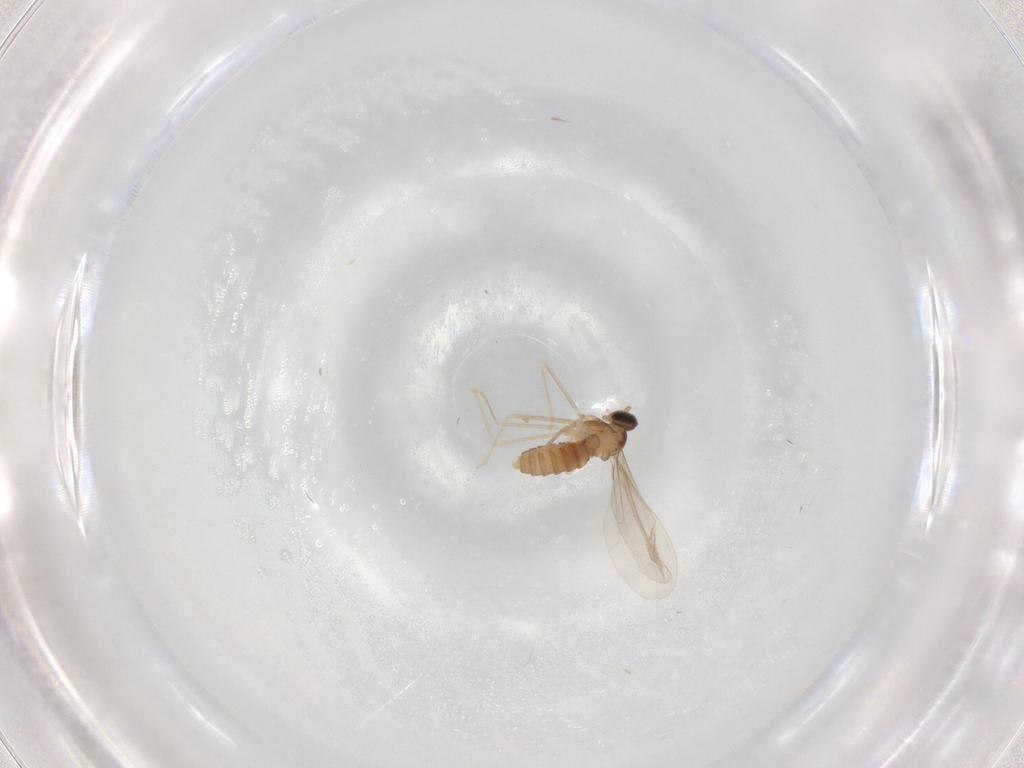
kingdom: Animalia
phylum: Arthropoda
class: Insecta
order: Diptera
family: Cecidomyiidae
